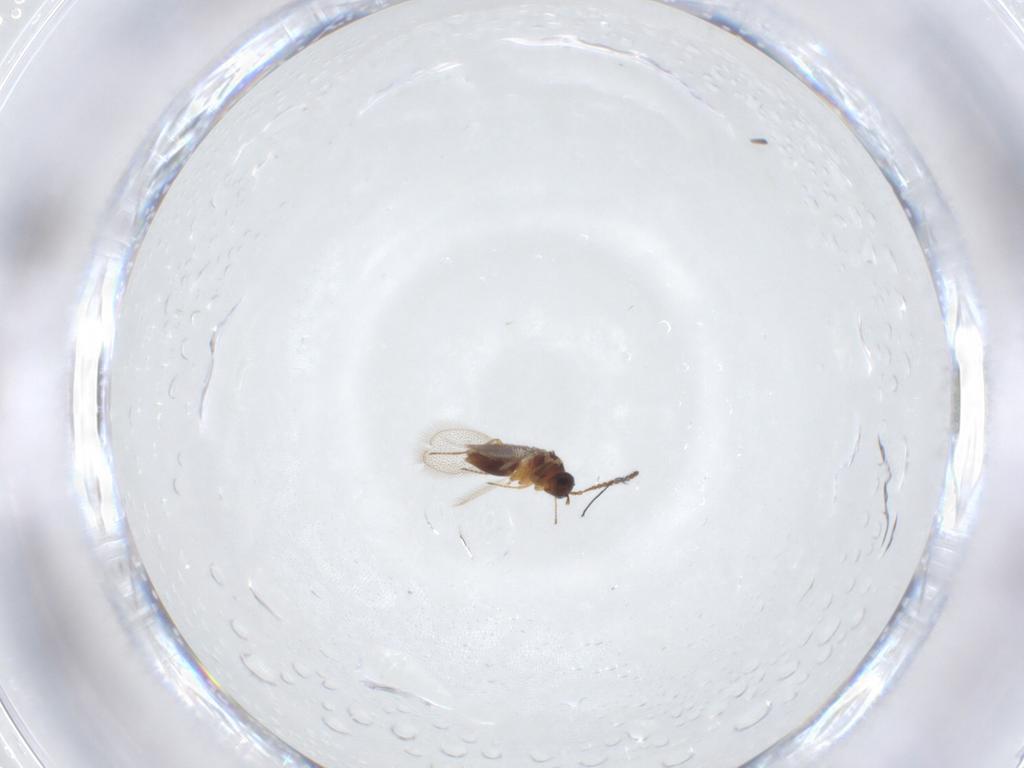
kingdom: Animalia
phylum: Arthropoda
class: Insecta
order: Hymenoptera
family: Figitidae
